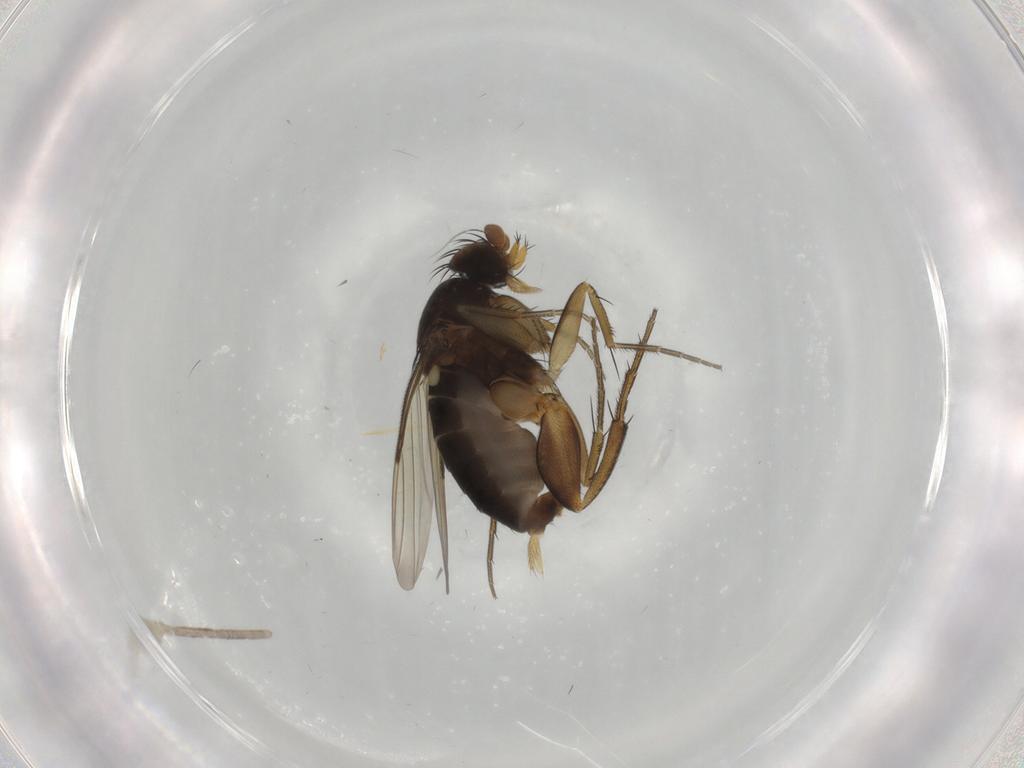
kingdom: Animalia
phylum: Arthropoda
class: Insecta
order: Diptera
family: Phoridae
